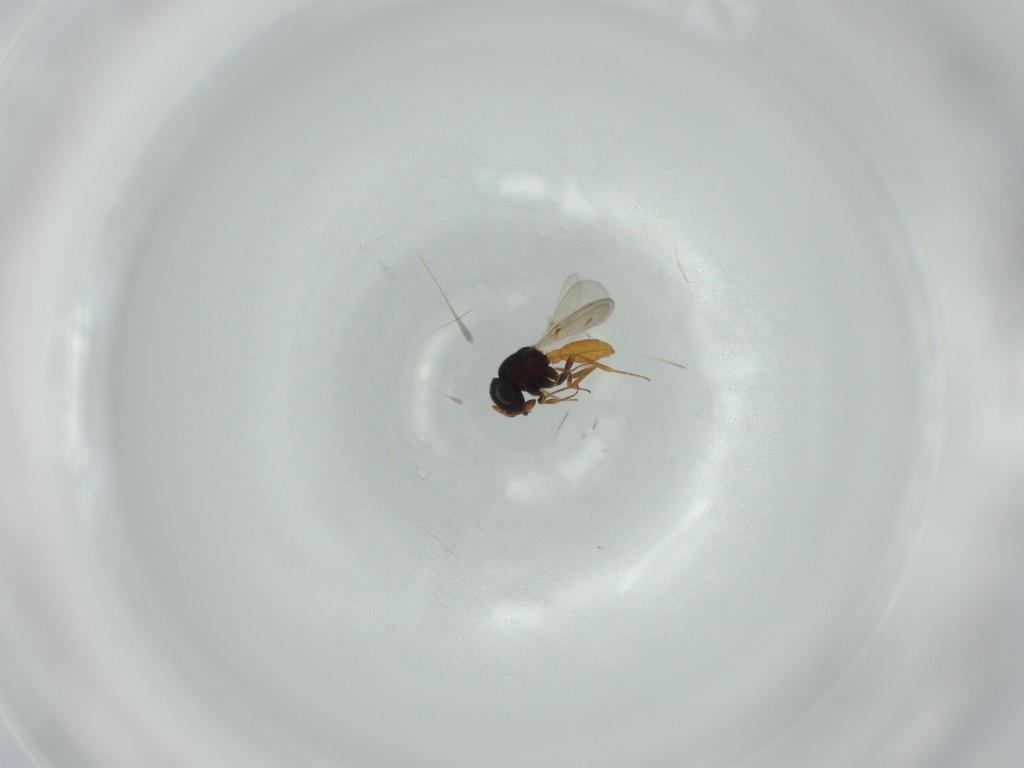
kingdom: Animalia
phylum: Arthropoda
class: Insecta
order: Hymenoptera
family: Scelionidae
